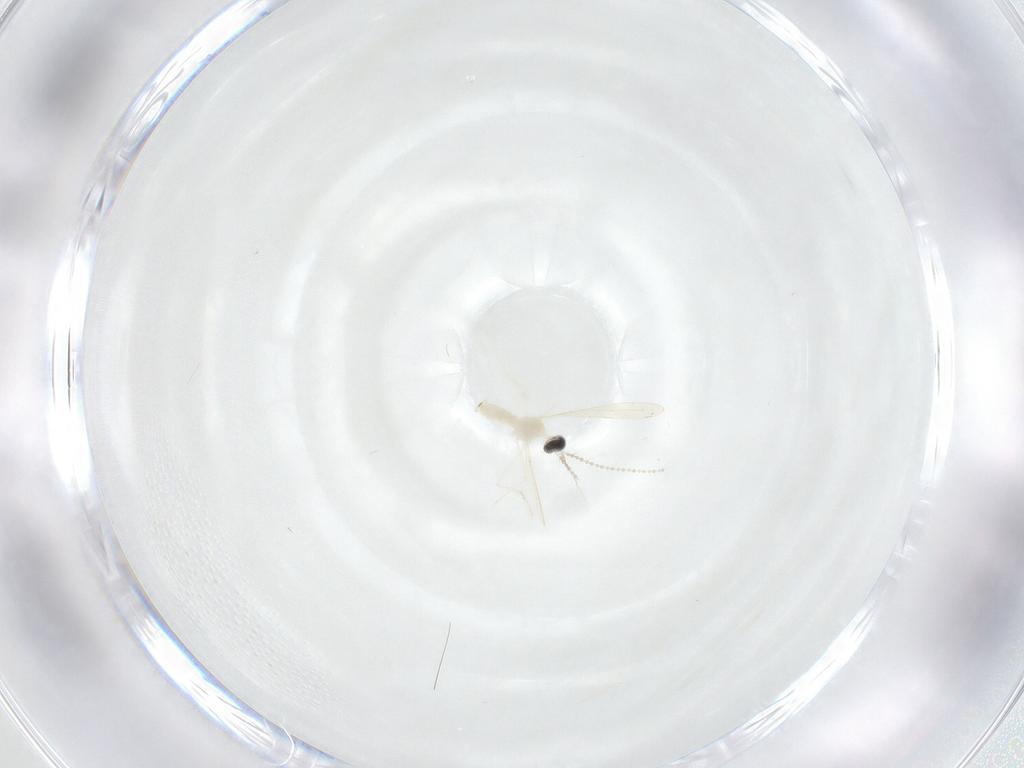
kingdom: Animalia
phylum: Arthropoda
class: Insecta
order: Diptera
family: Cecidomyiidae
